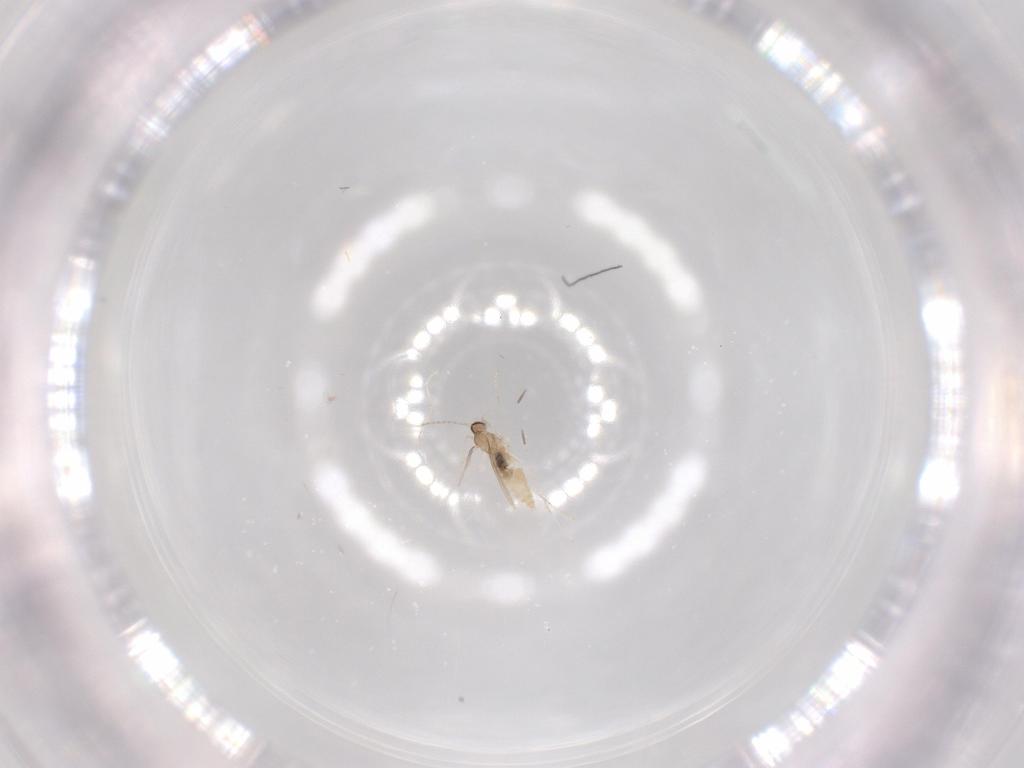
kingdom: Animalia
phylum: Arthropoda
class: Insecta
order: Diptera
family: Cecidomyiidae
